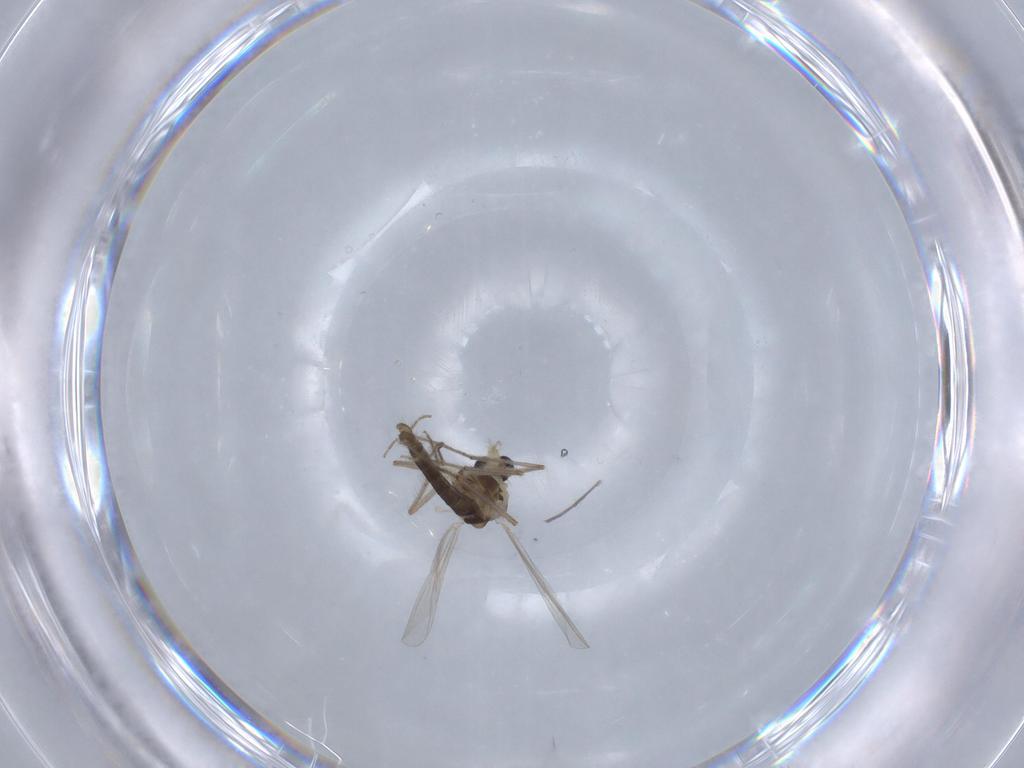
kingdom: Animalia
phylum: Arthropoda
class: Insecta
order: Diptera
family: Chironomidae
